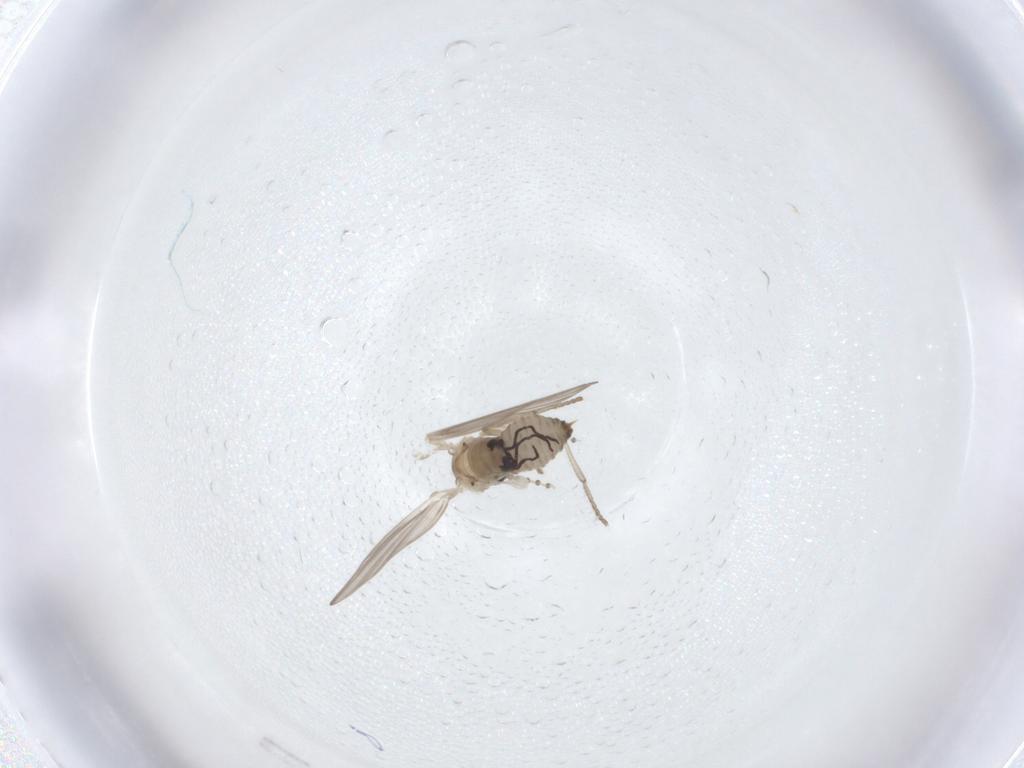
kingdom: Animalia
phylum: Arthropoda
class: Insecta
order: Diptera
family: Psychodidae
